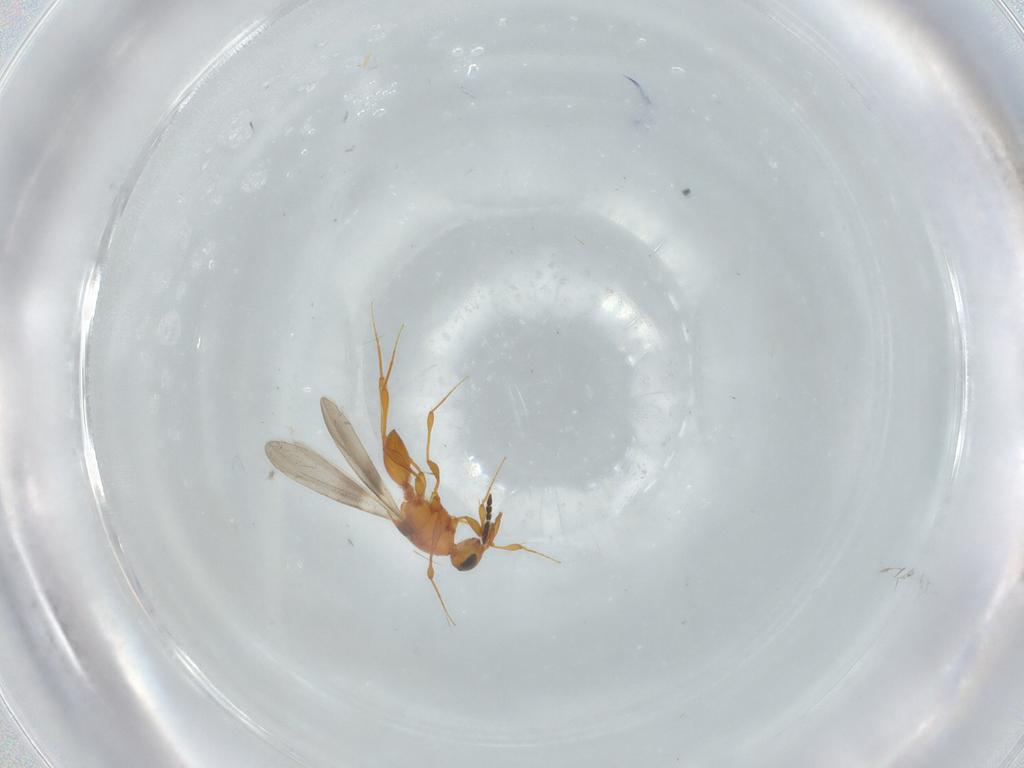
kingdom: Animalia
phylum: Arthropoda
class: Insecta
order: Hymenoptera
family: Platygastridae
